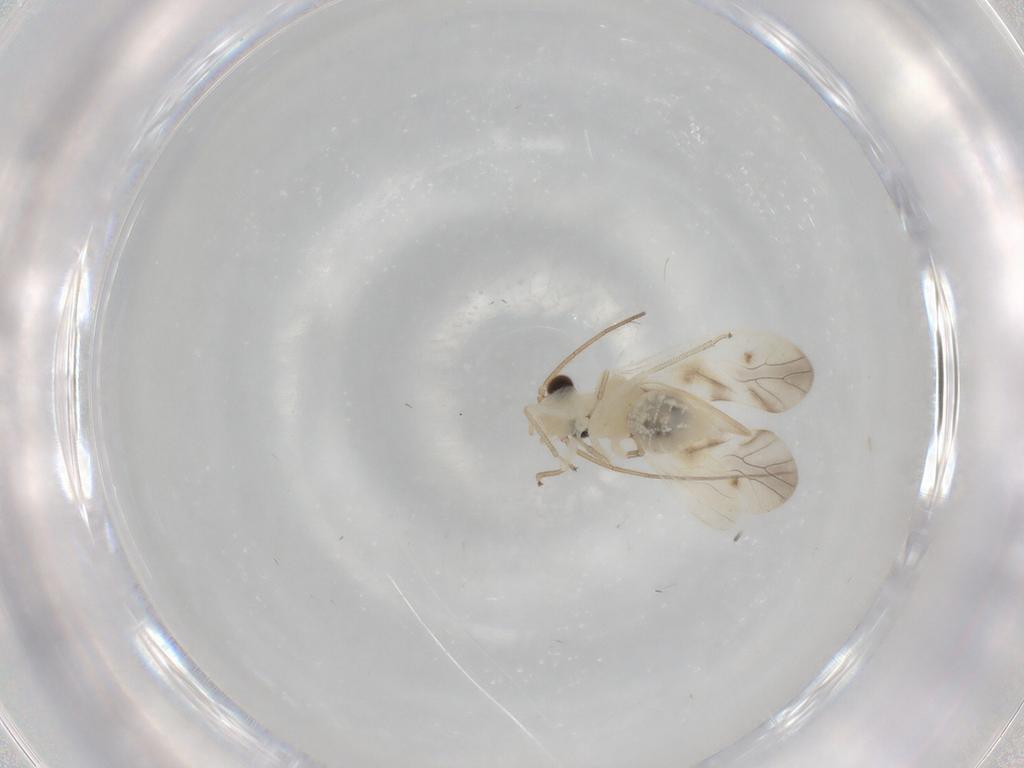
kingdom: Animalia
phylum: Arthropoda
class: Insecta
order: Psocodea
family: Caeciliusidae
